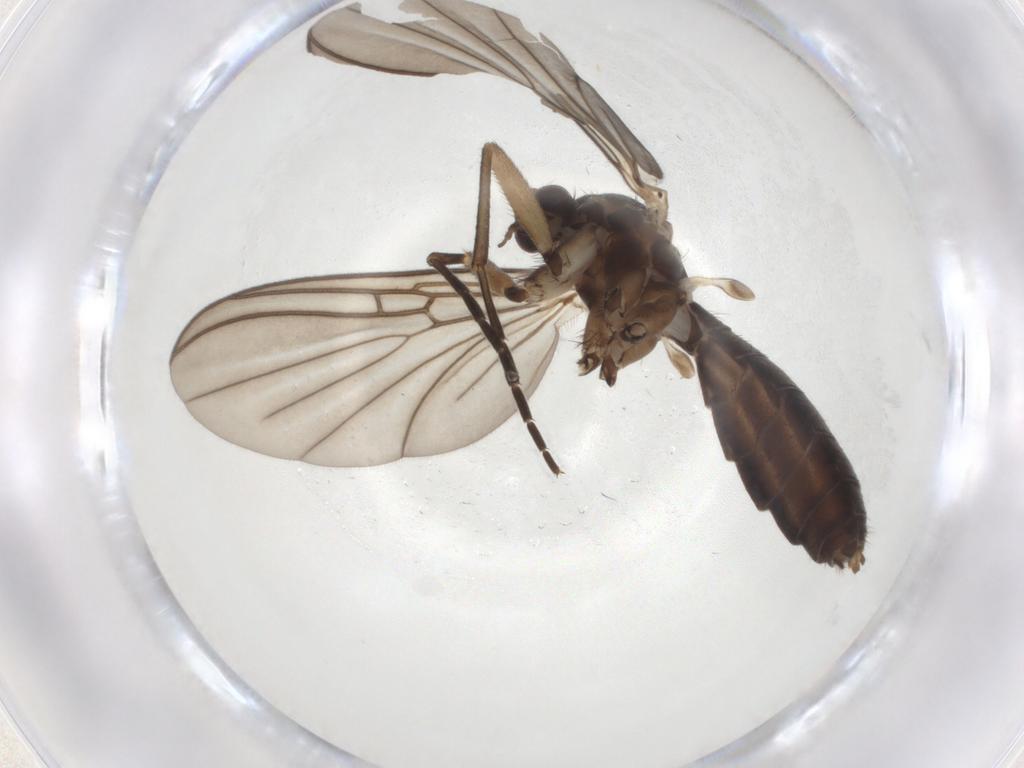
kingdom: Animalia
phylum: Arthropoda
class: Insecta
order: Diptera
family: Mycetophilidae
